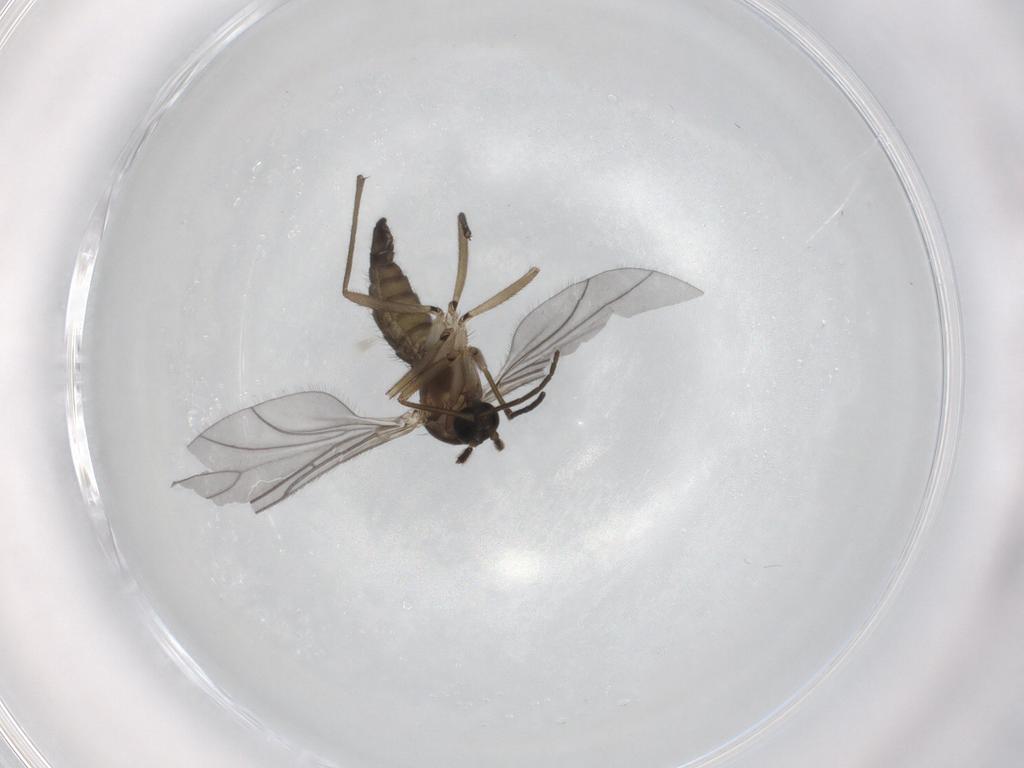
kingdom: Animalia
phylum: Arthropoda
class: Insecta
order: Diptera
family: Sciaridae
